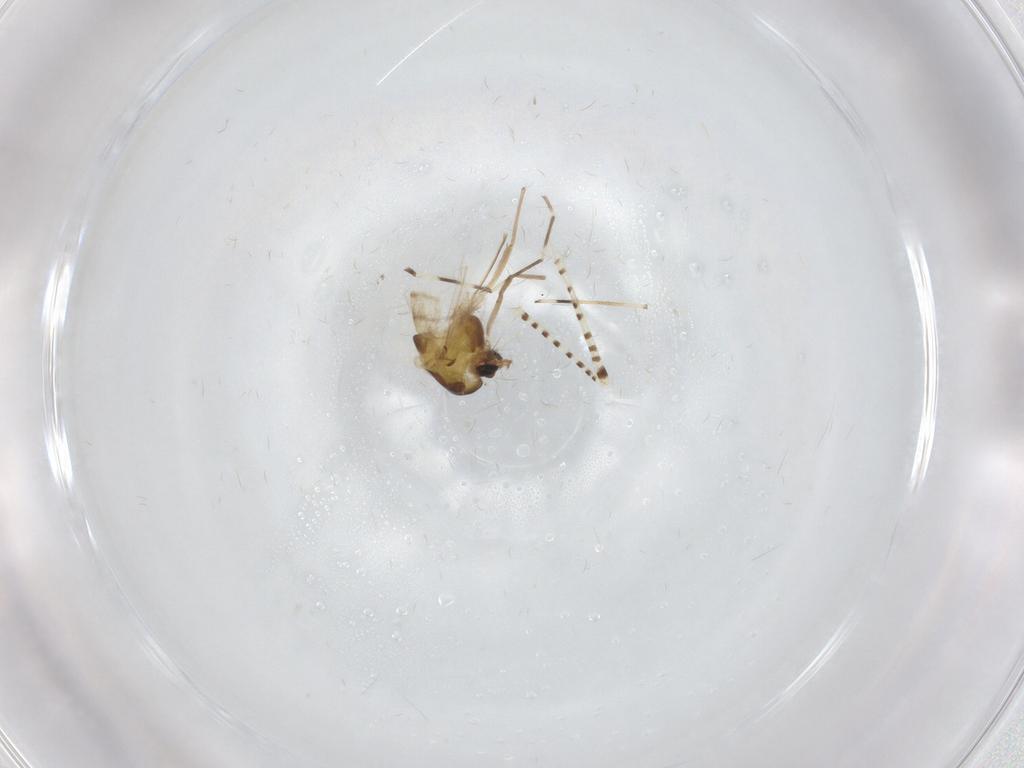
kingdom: Animalia
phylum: Arthropoda
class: Insecta
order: Diptera
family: Chaoboridae
